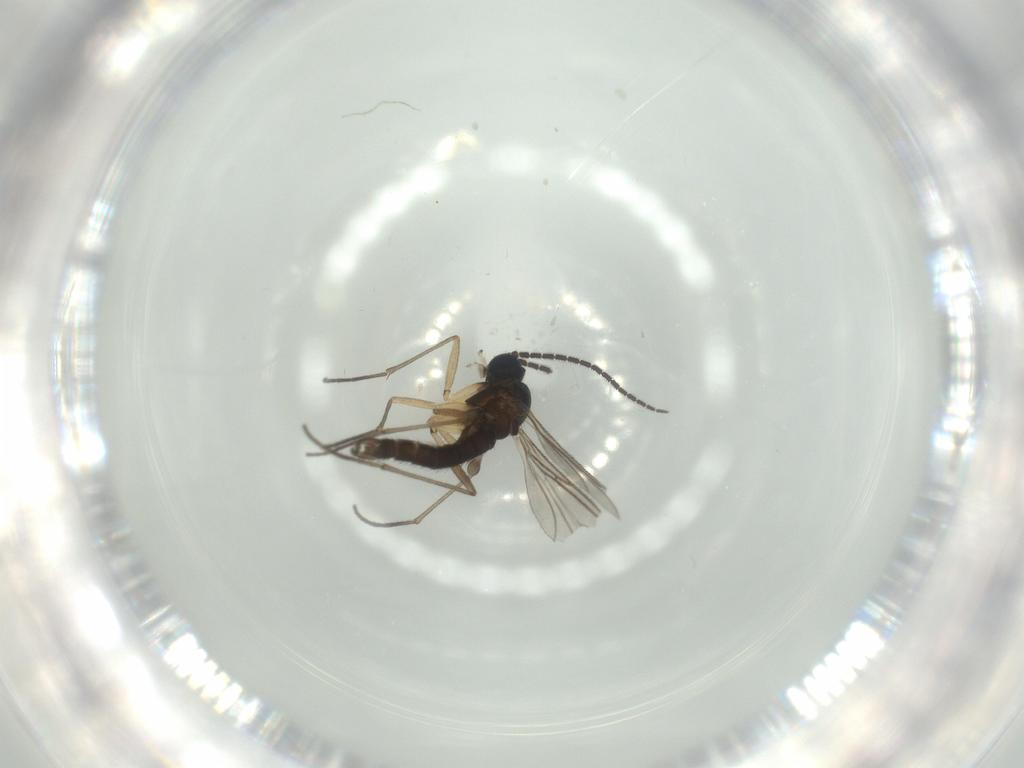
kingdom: Animalia
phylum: Arthropoda
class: Insecta
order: Diptera
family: Sciaridae
